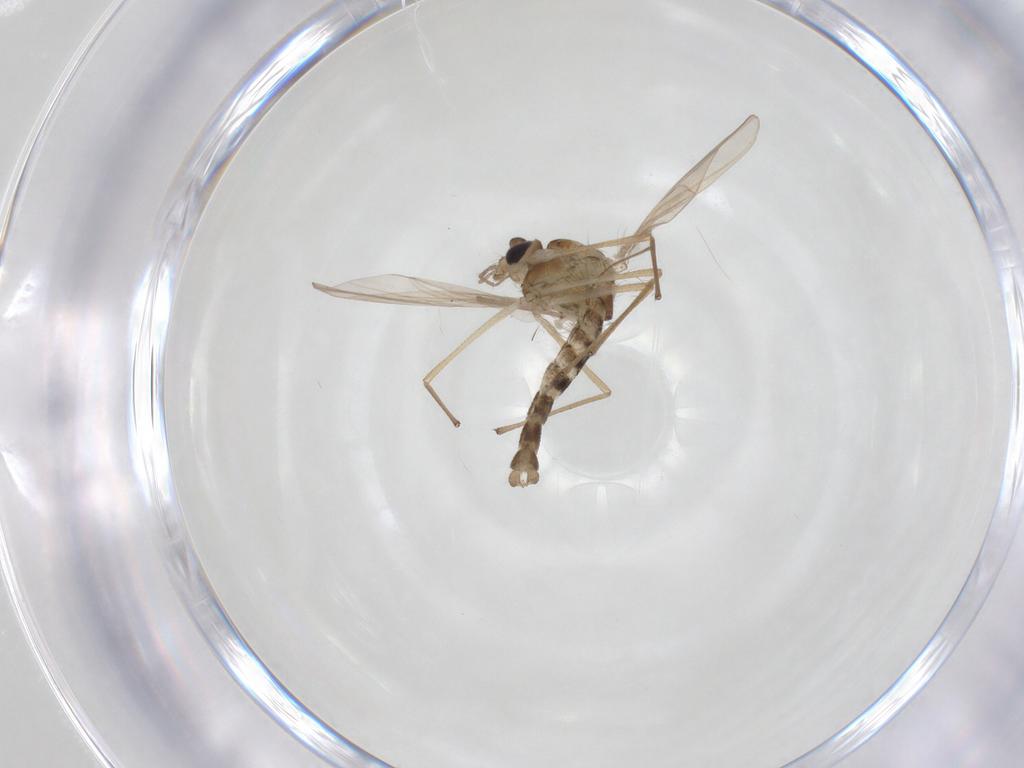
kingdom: Animalia
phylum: Arthropoda
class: Insecta
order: Diptera
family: Chironomidae
